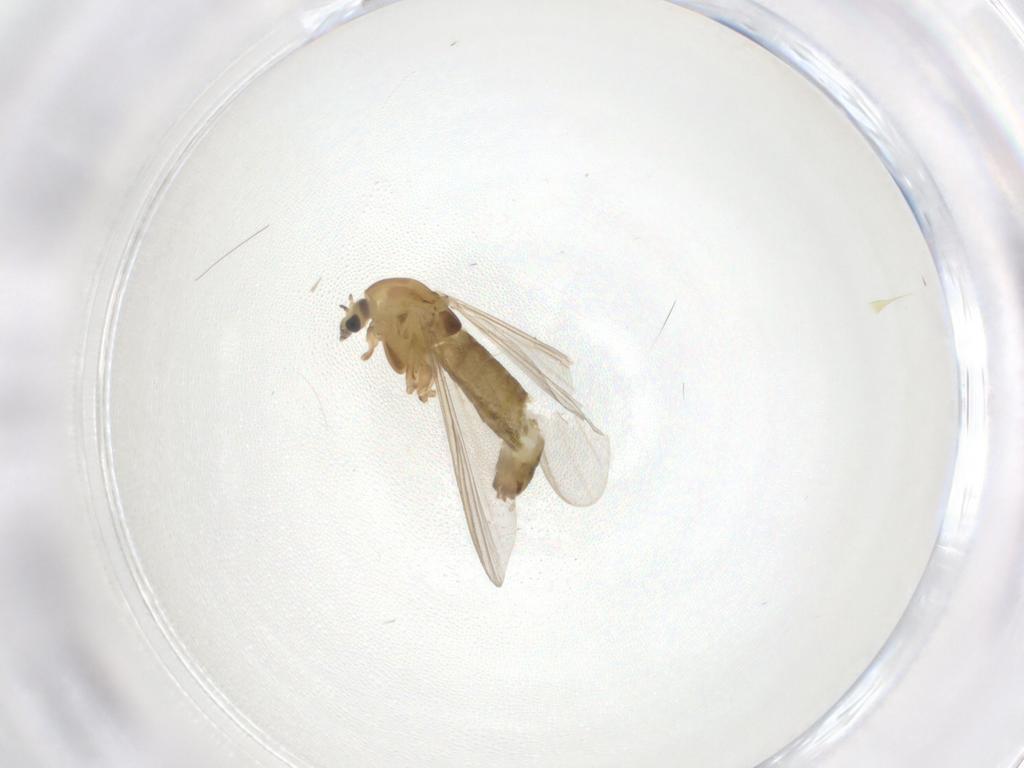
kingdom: Animalia
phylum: Arthropoda
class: Insecta
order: Diptera
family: Chironomidae
